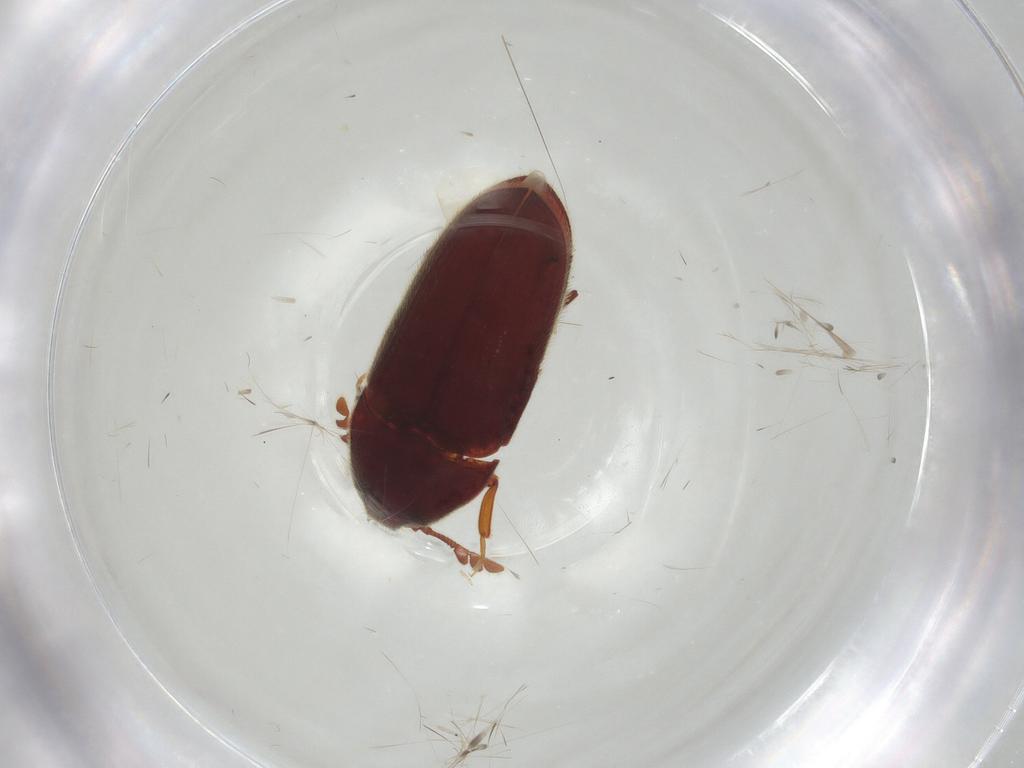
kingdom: Animalia
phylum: Arthropoda
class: Insecta
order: Coleoptera
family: Throscidae
